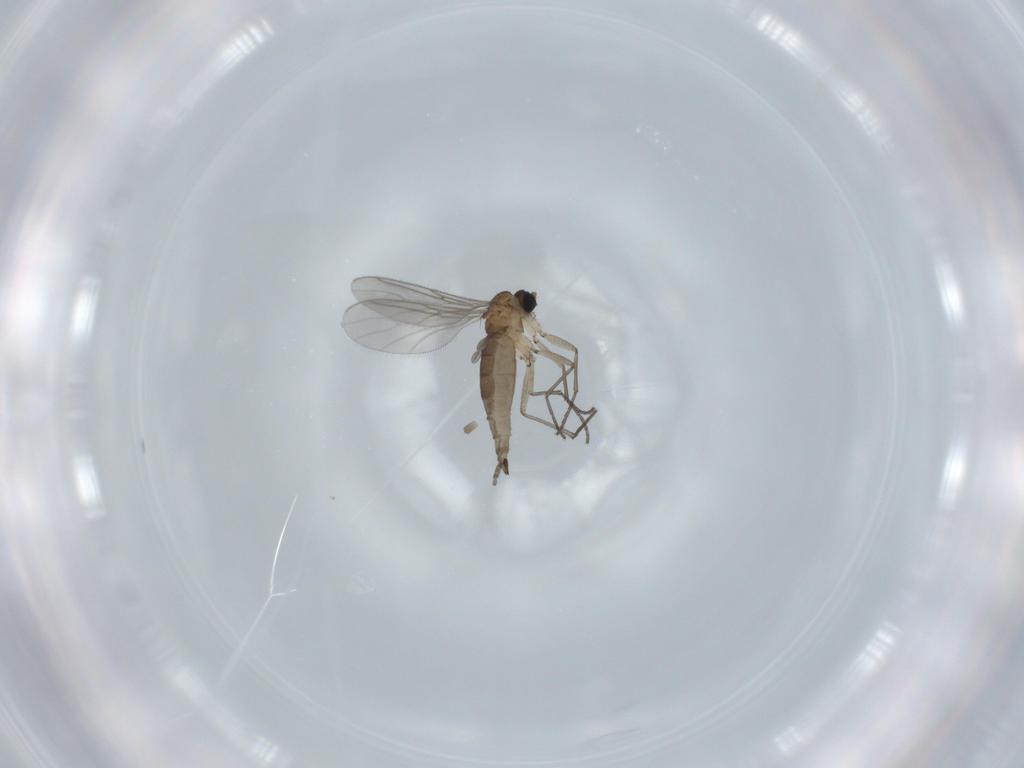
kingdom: Animalia
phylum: Arthropoda
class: Insecta
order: Diptera
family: Sciaridae
